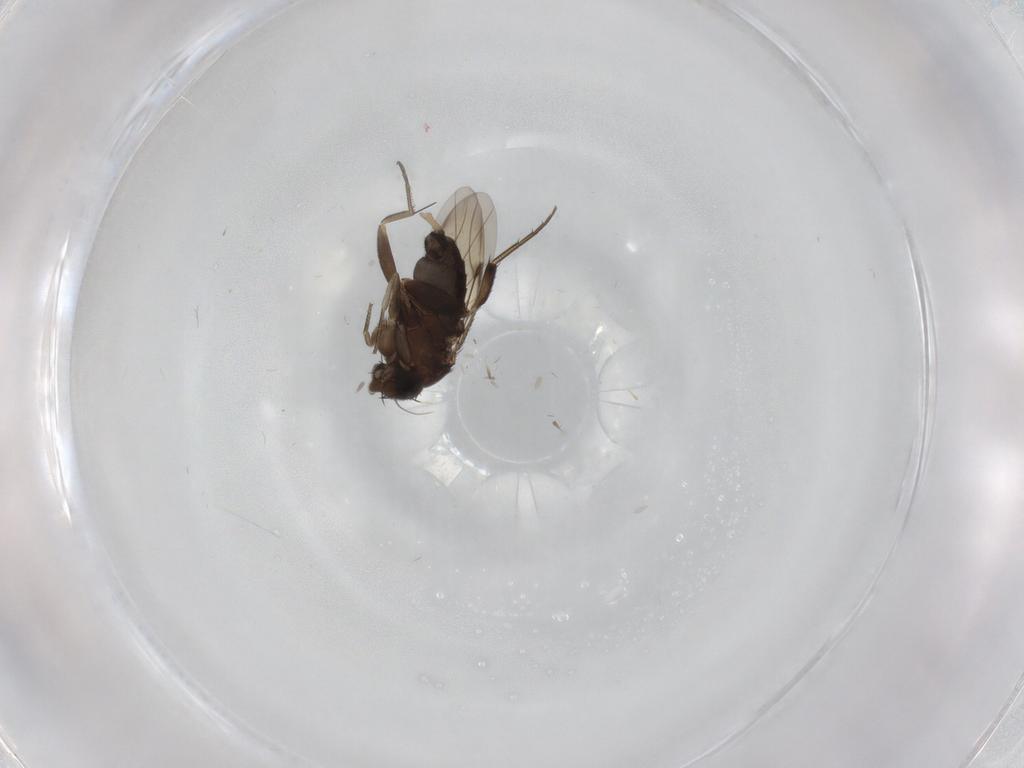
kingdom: Animalia
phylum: Arthropoda
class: Insecta
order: Diptera
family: Phoridae
